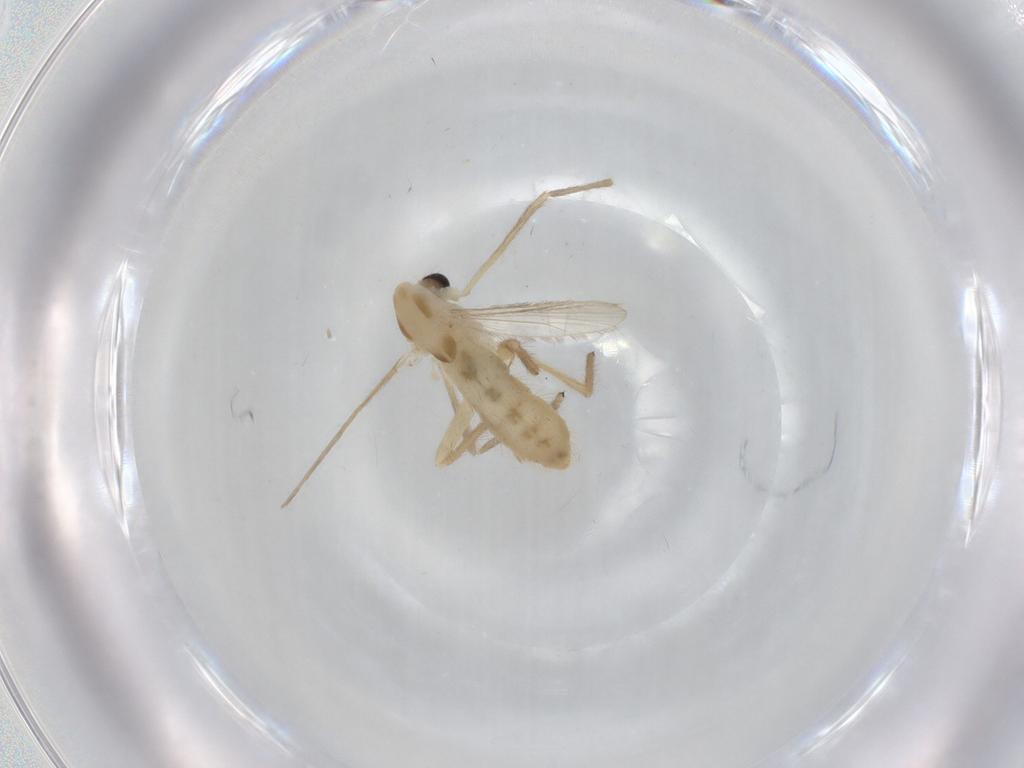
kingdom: Animalia
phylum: Arthropoda
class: Insecta
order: Diptera
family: Chironomidae
